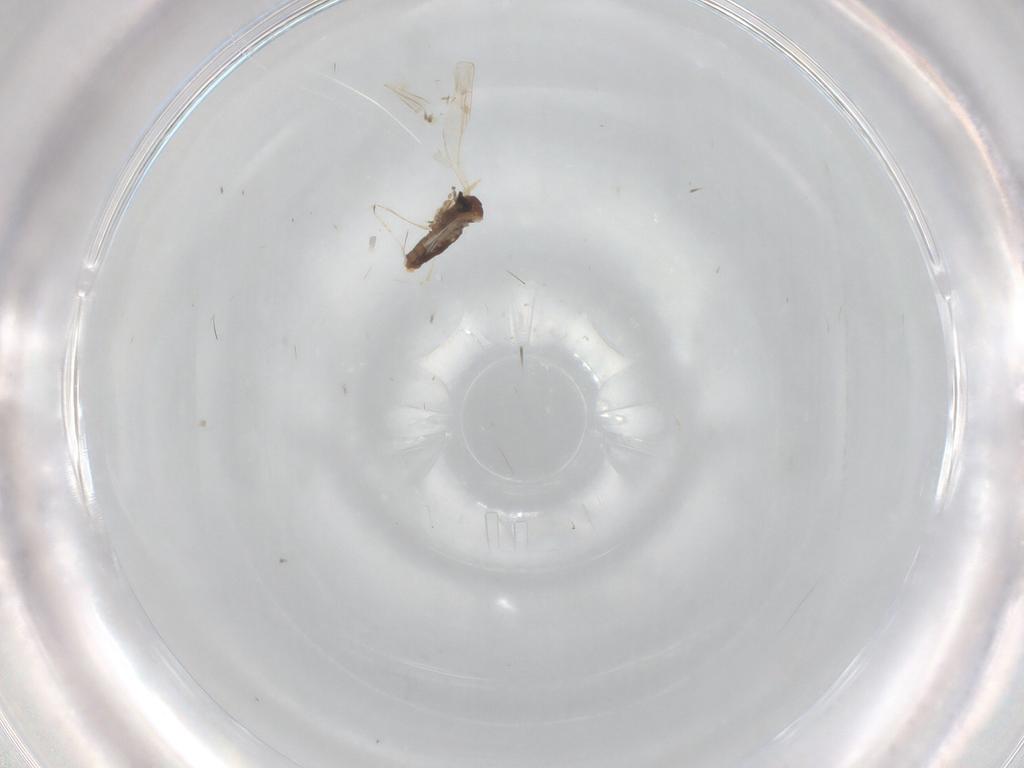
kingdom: Animalia
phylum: Arthropoda
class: Insecta
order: Diptera
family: Cecidomyiidae
